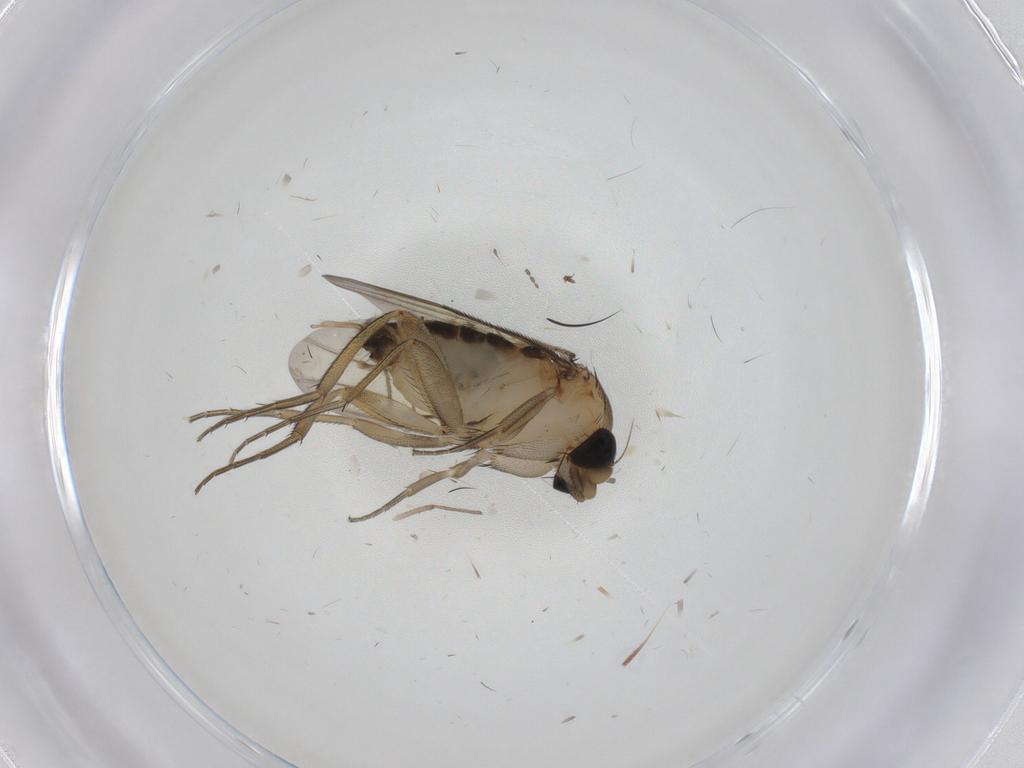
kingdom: Animalia
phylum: Arthropoda
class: Insecta
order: Diptera
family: Phoridae
